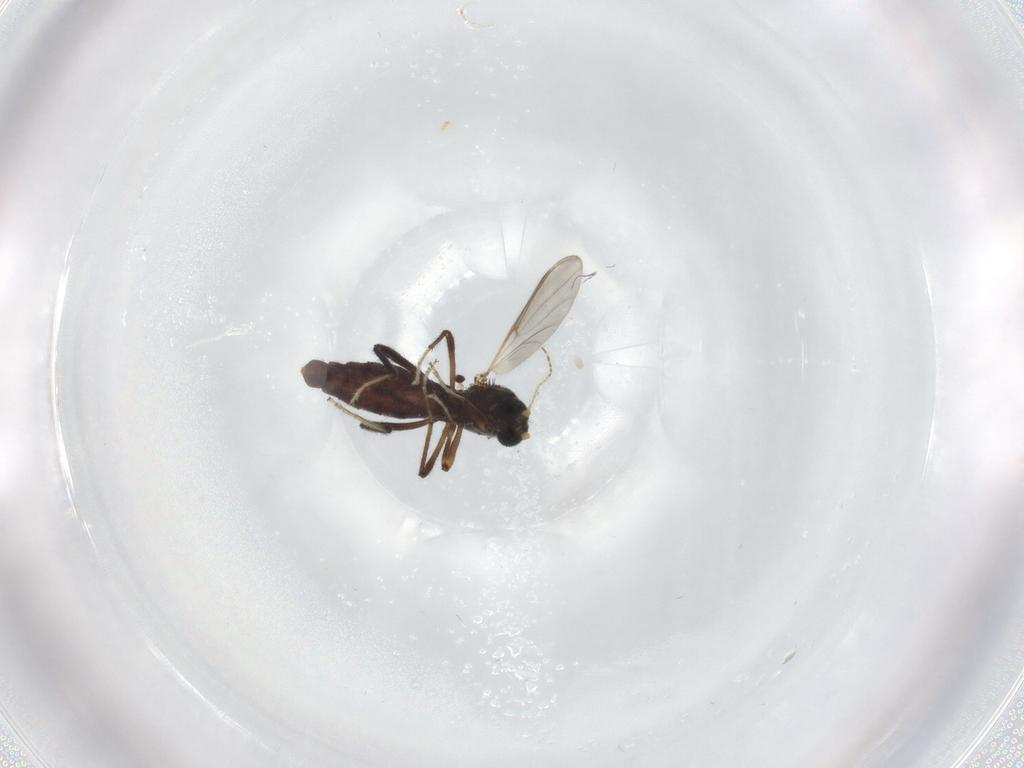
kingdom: Animalia
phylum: Arthropoda
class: Insecta
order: Diptera
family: Ceratopogonidae
